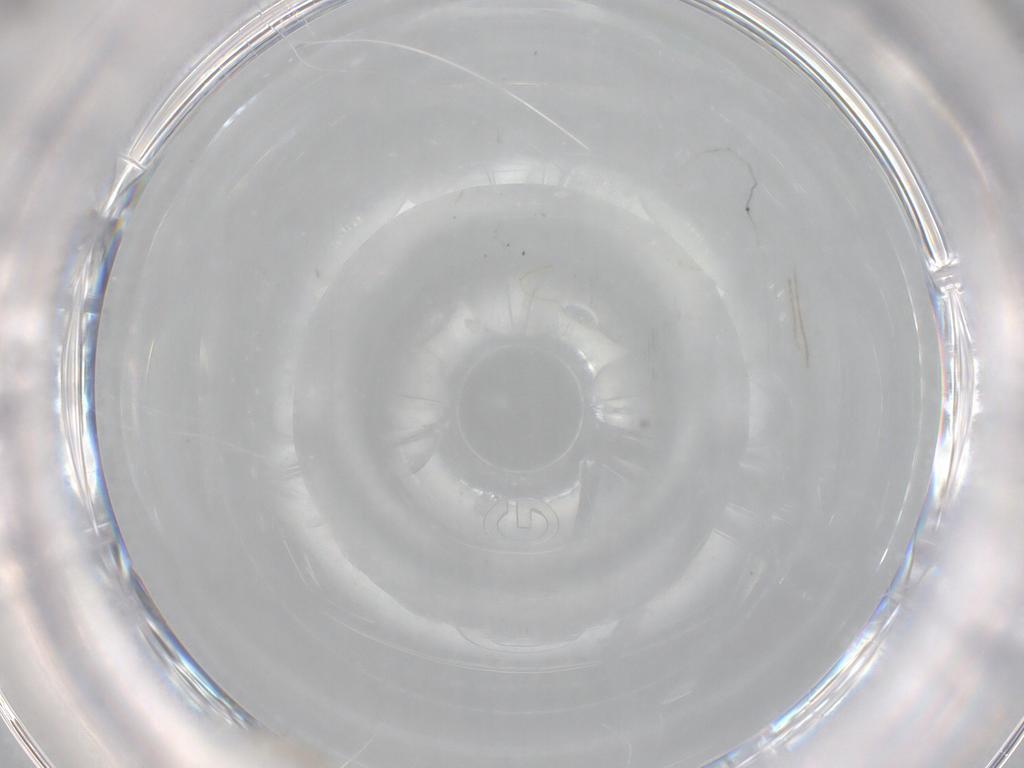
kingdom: Animalia
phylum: Arthropoda
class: Collembola
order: Entomobryomorpha
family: Entomobryidae
